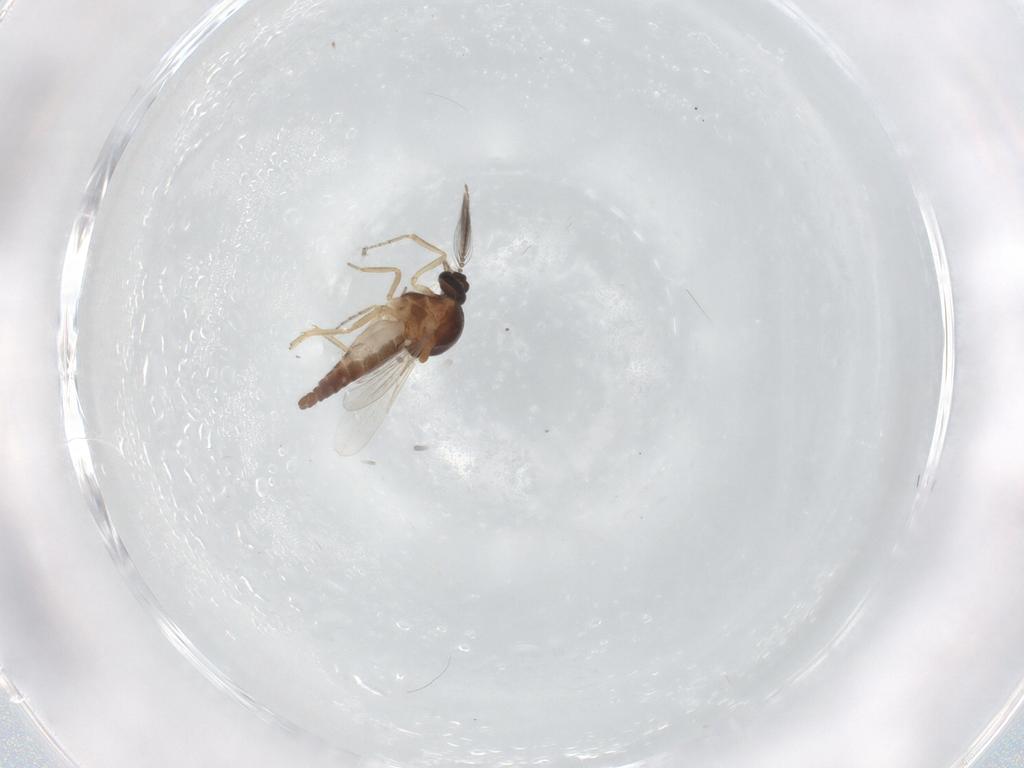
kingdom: Animalia
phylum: Arthropoda
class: Insecta
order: Diptera
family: Ceratopogonidae
